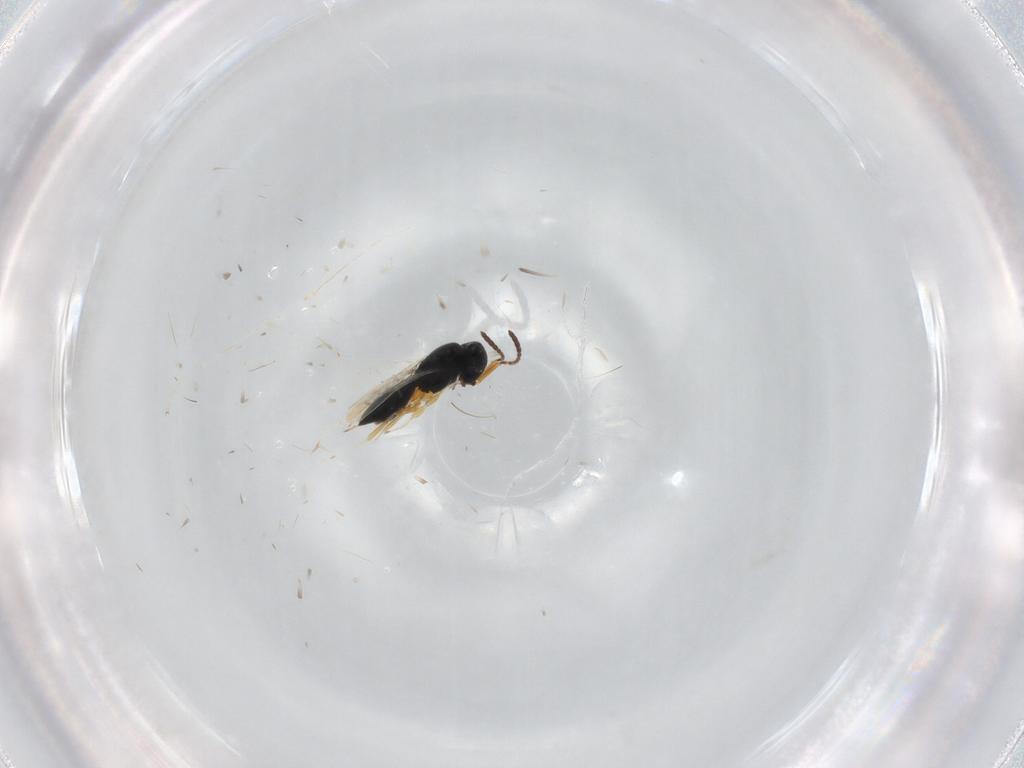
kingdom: Animalia
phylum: Arthropoda
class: Insecta
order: Hymenoptera
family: Scelionidae
